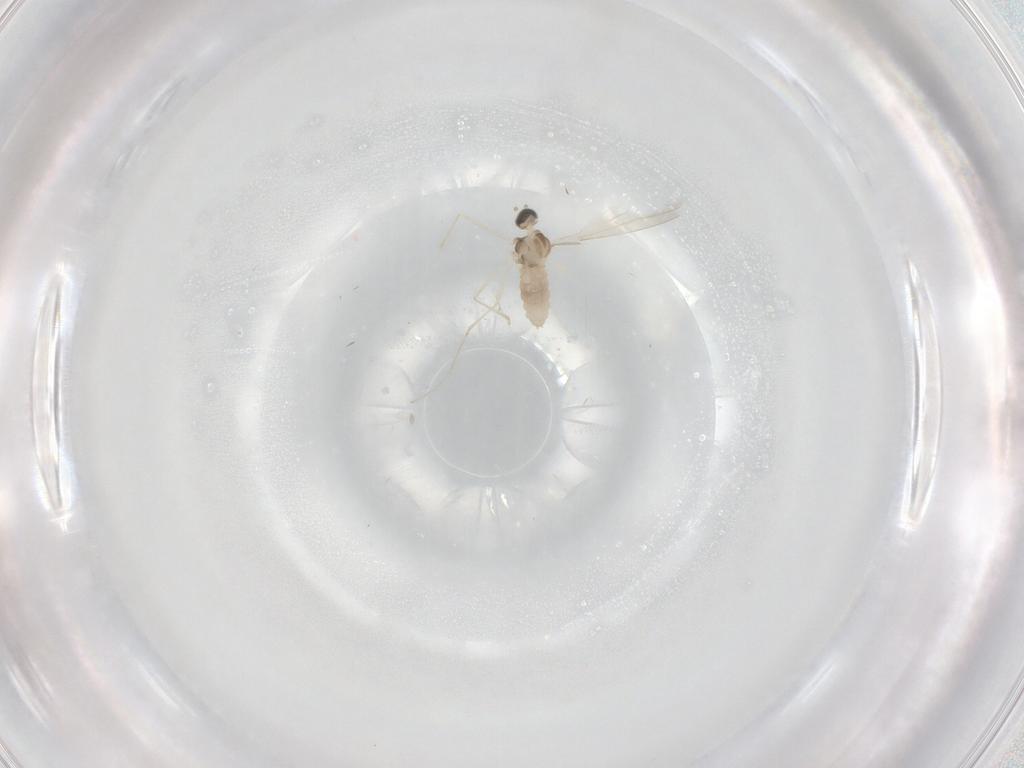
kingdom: Animalia
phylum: Arthropoda
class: Insecta
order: Diptera
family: Cecidomyiidae
